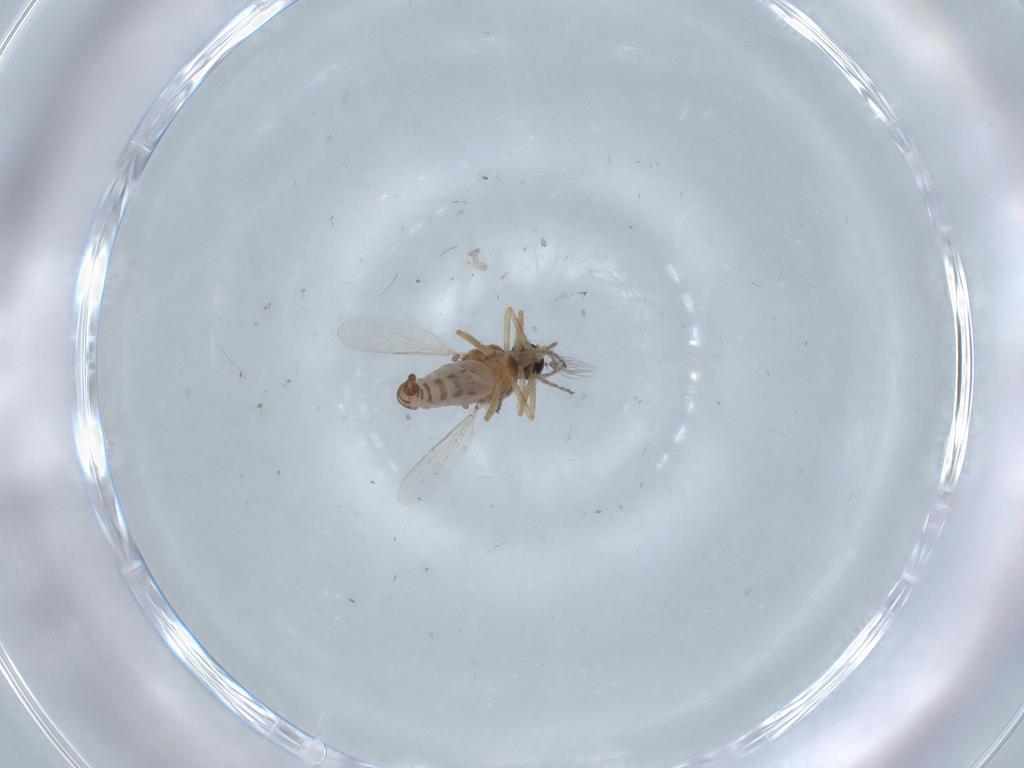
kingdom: Animalia
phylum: Arthropoda
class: Insecta
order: Diptera
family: Ceratopogonidae
